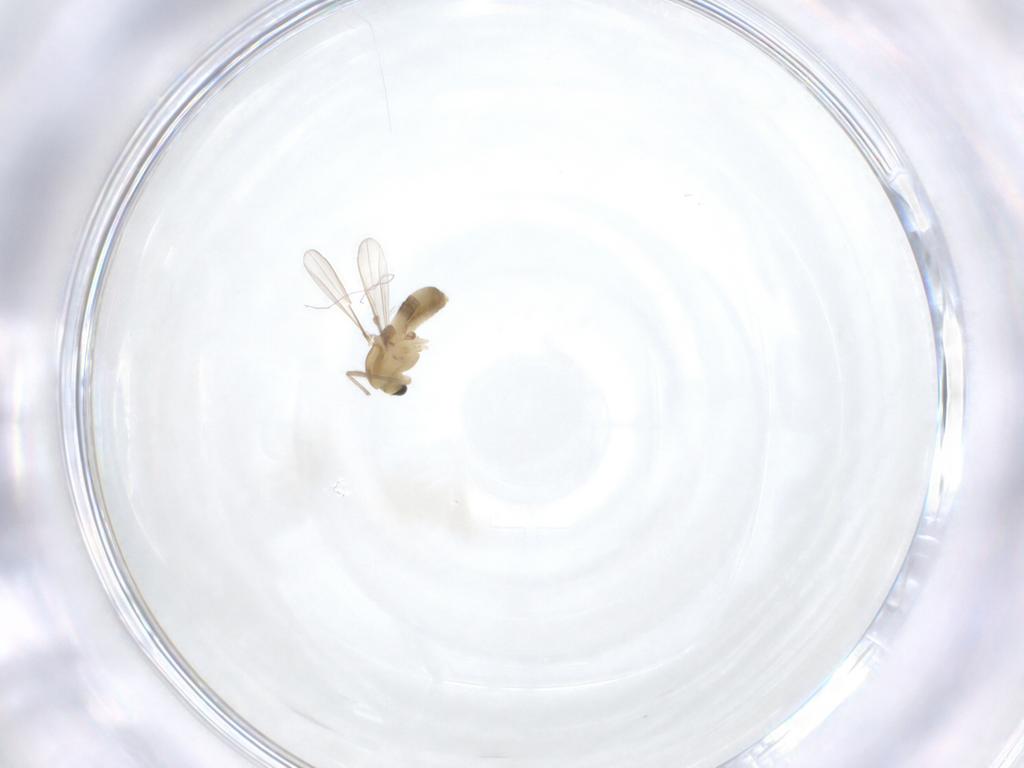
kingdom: Animalia
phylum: Arthropoda
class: Insecta
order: Diptera
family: Chironomidae
